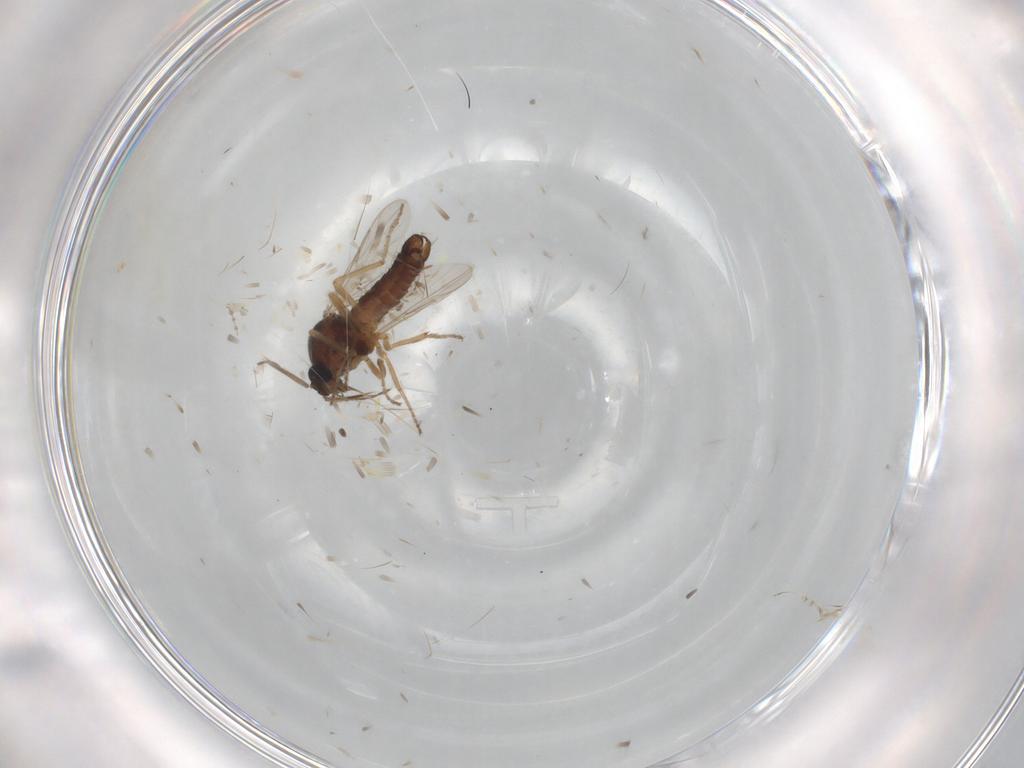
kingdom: Animalia
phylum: Arthropoda
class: Insecta
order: Diptera
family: Ceratopogonidae
